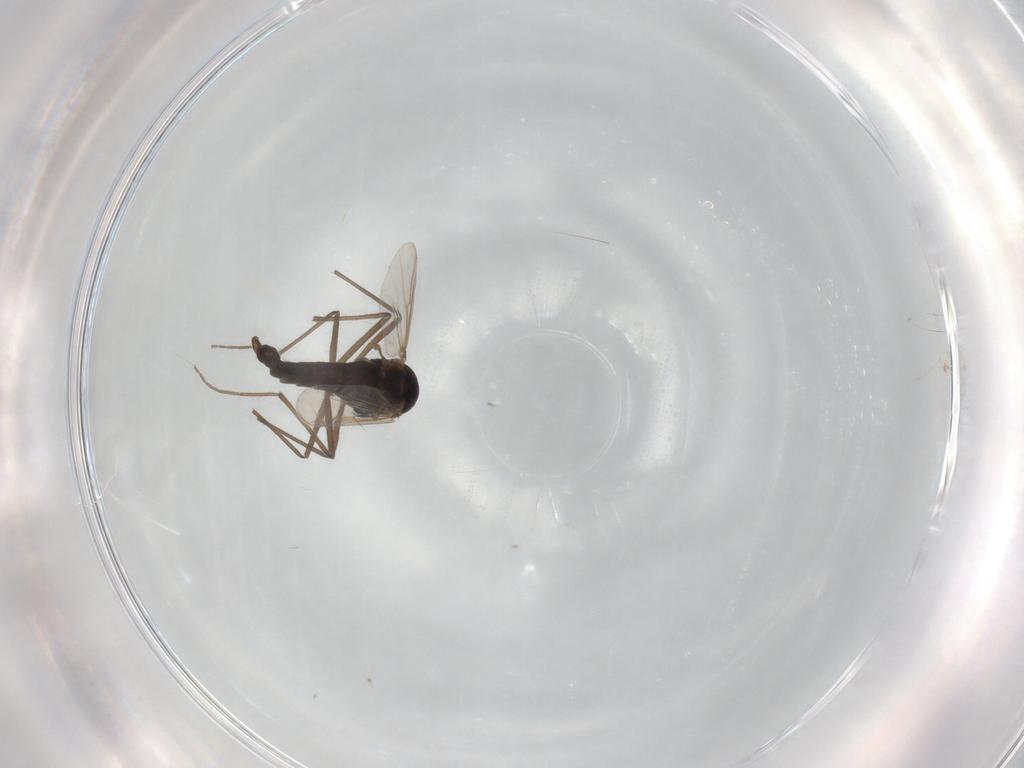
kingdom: Animalia
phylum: Arthropoda
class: Insecta
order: Diptera
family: Chironomidae
